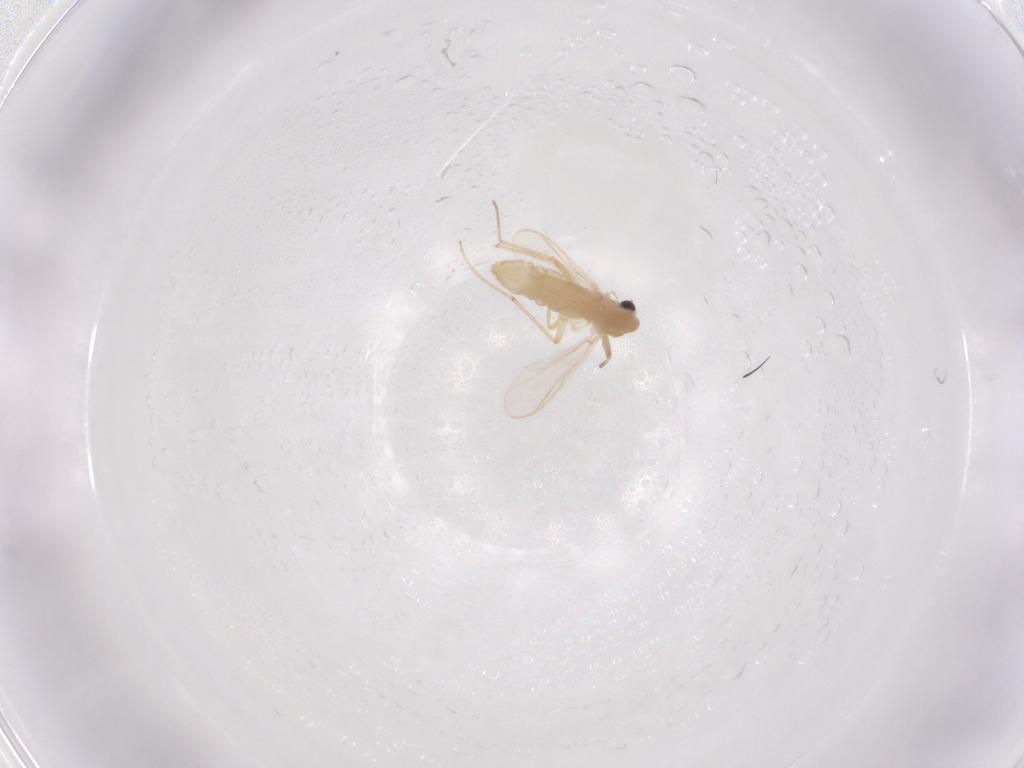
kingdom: Animalia
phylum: Arthropoda
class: Insecta
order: Diptera
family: Chironomidae
